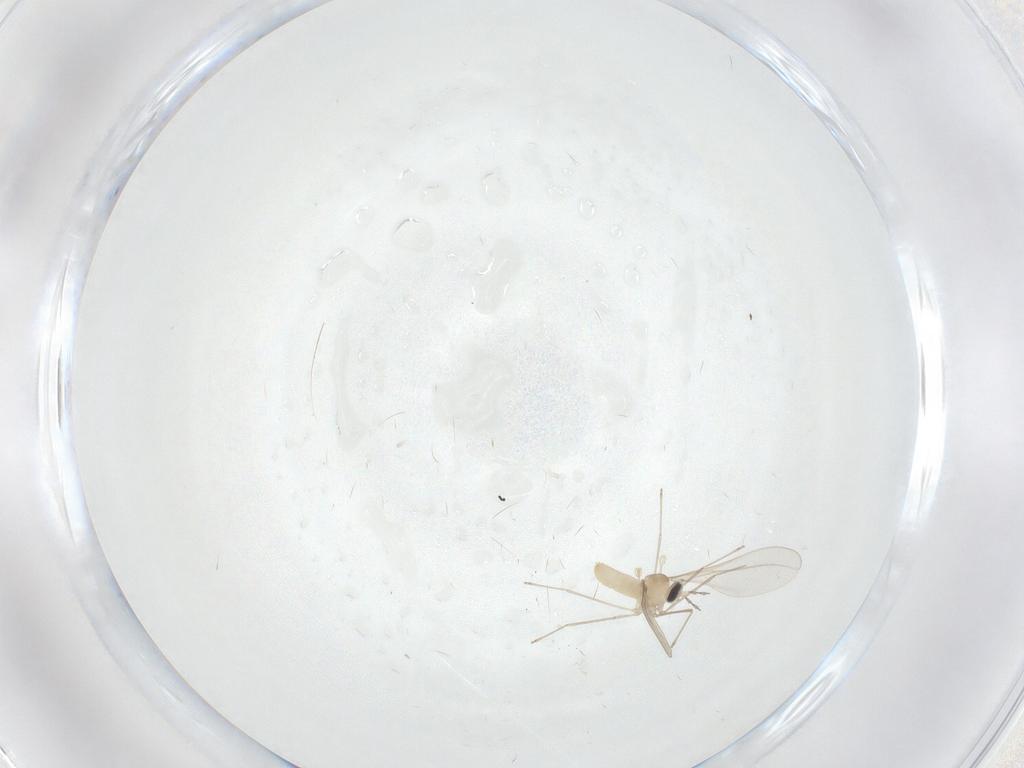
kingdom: Animalia
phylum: Arthropoda
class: Insecta
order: Diptera
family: Cecidomyiidae
